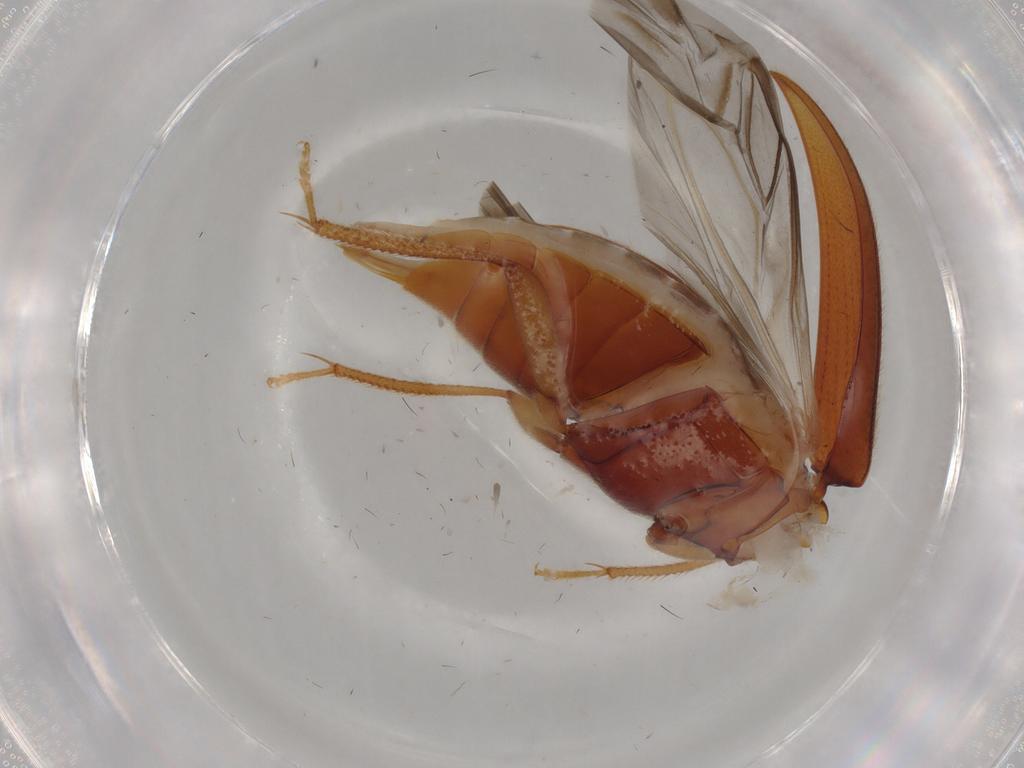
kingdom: Animalia
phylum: Arthropoda
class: Insecta
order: Coleoptera
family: Ptilodactylidae
